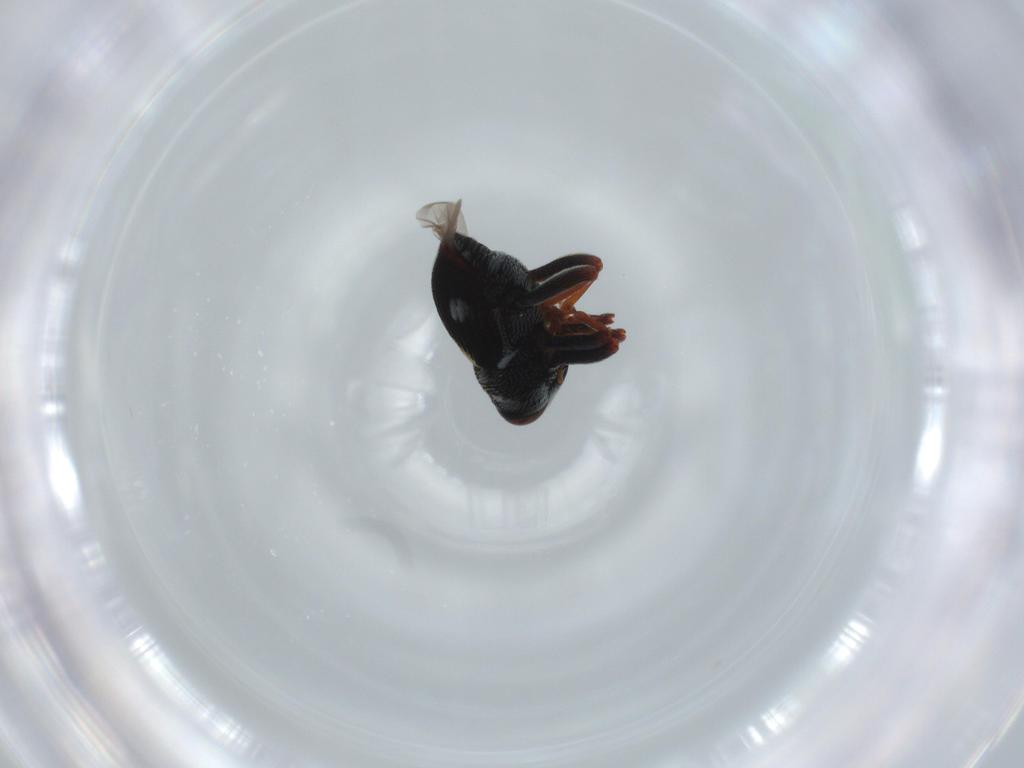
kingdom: Animalia
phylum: Arthropoda
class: Insecta
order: Coleoptera
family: Curculionidae
